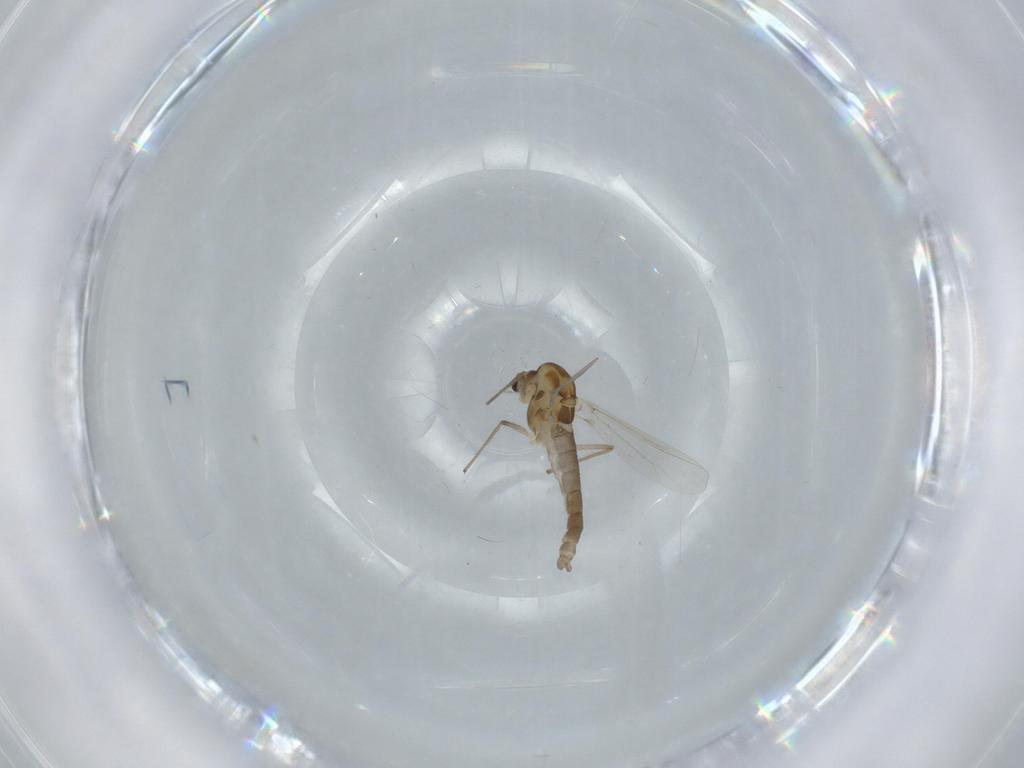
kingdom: Animalia
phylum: Arthropoda
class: Insecta
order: Diptera
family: Chironomidae
